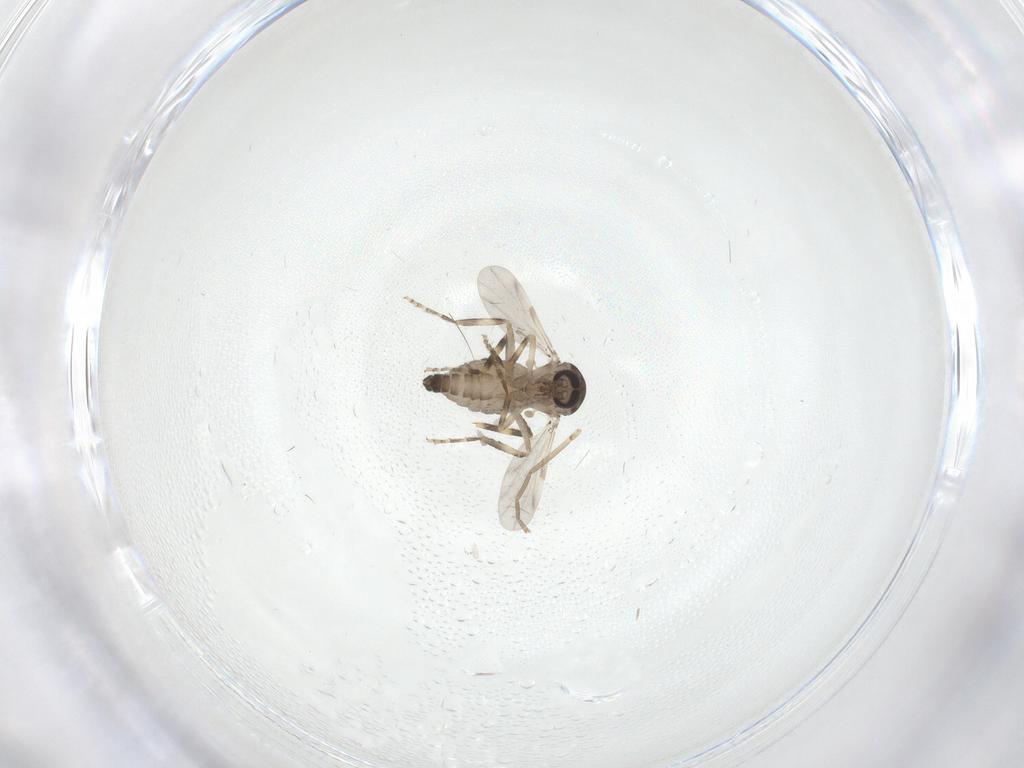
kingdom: Animalia
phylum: Arthropoda
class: Insecta
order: Diptera
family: Ceratopogonidae
